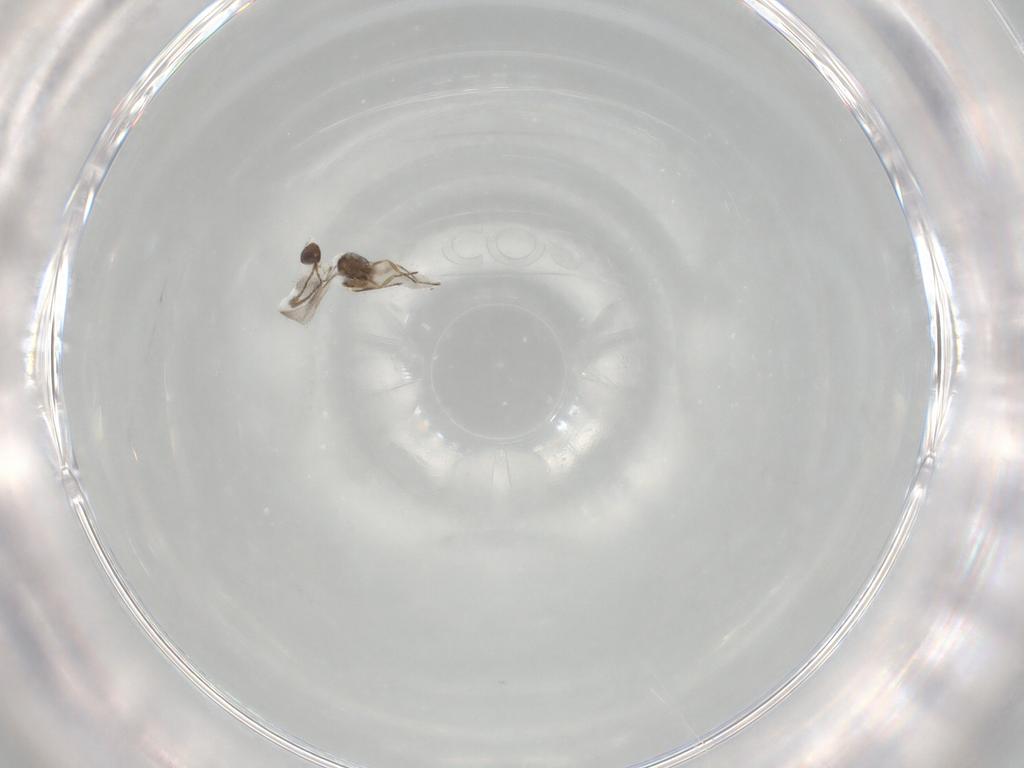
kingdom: Animalia
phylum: Arthropoda
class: Insecta
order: Hymenoptera
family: Mymaridae
